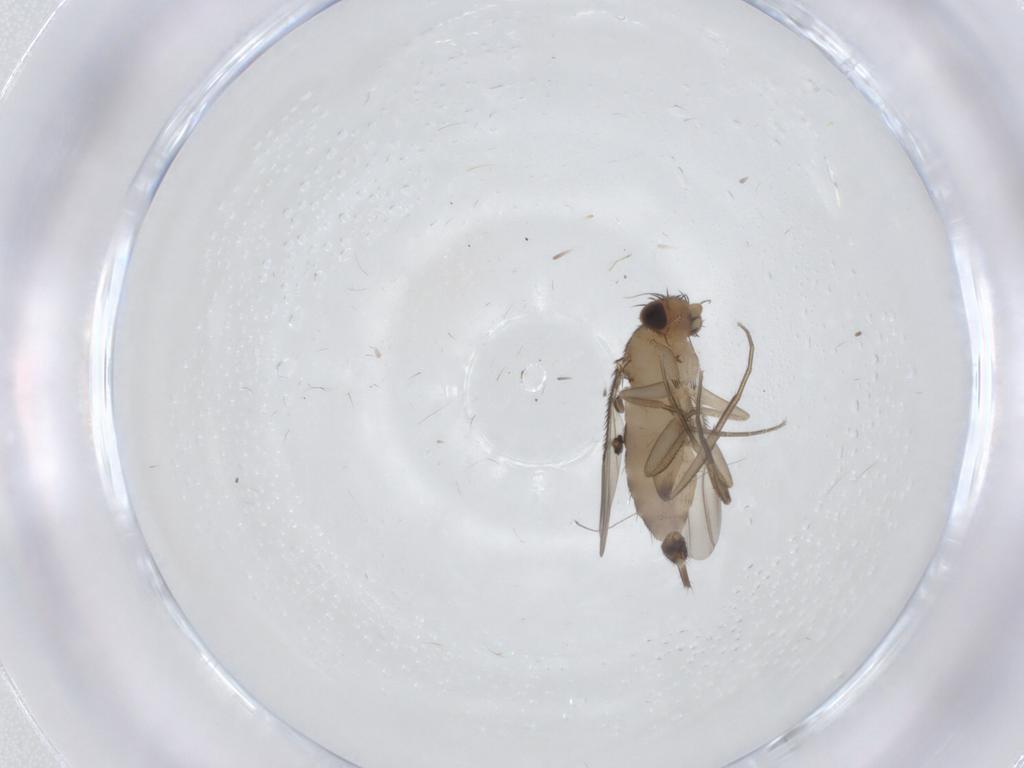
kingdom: Animalia
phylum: Arthropoda
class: Insecta
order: Diptera
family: Phoridae
